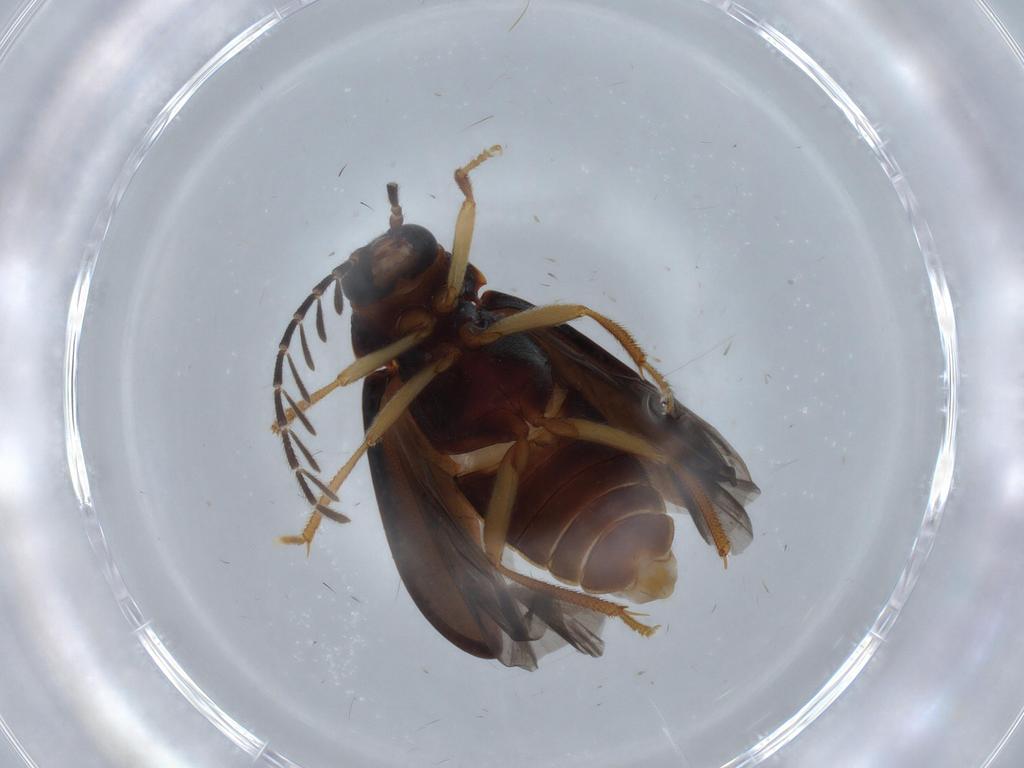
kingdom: Animalia
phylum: Arthropoda
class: Insecta
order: Coleoptera
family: Ptilodactylidae
